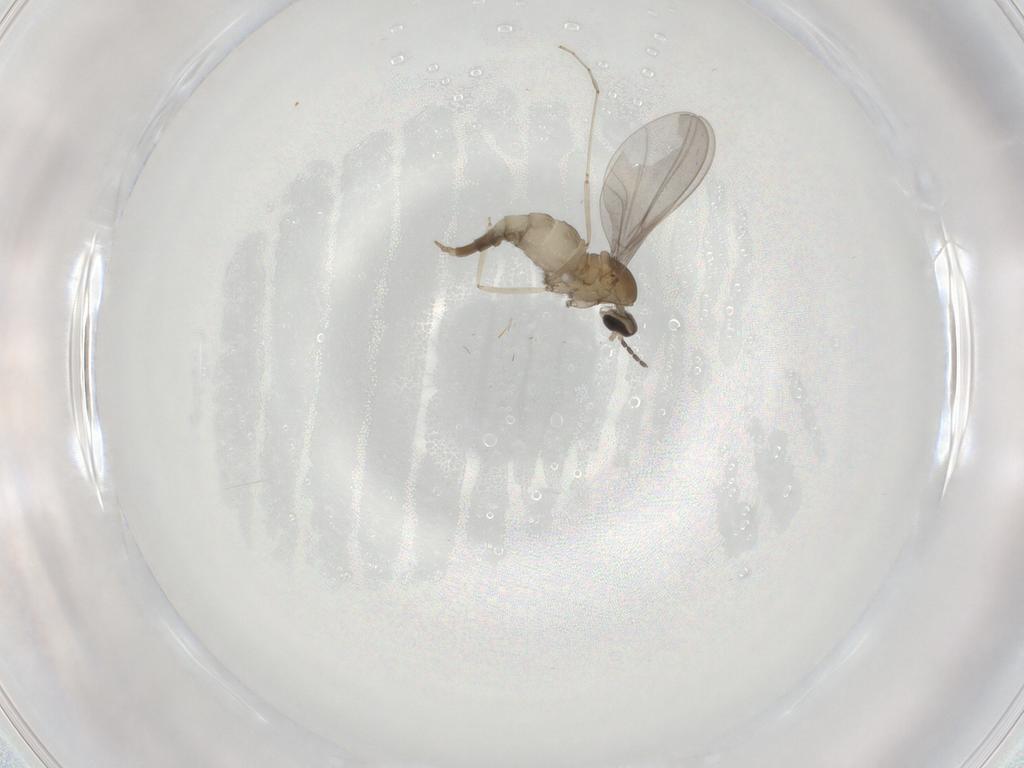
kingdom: Animalia
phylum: Arthropoda
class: Insecta
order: Diptera
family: Cecidomyiidae
